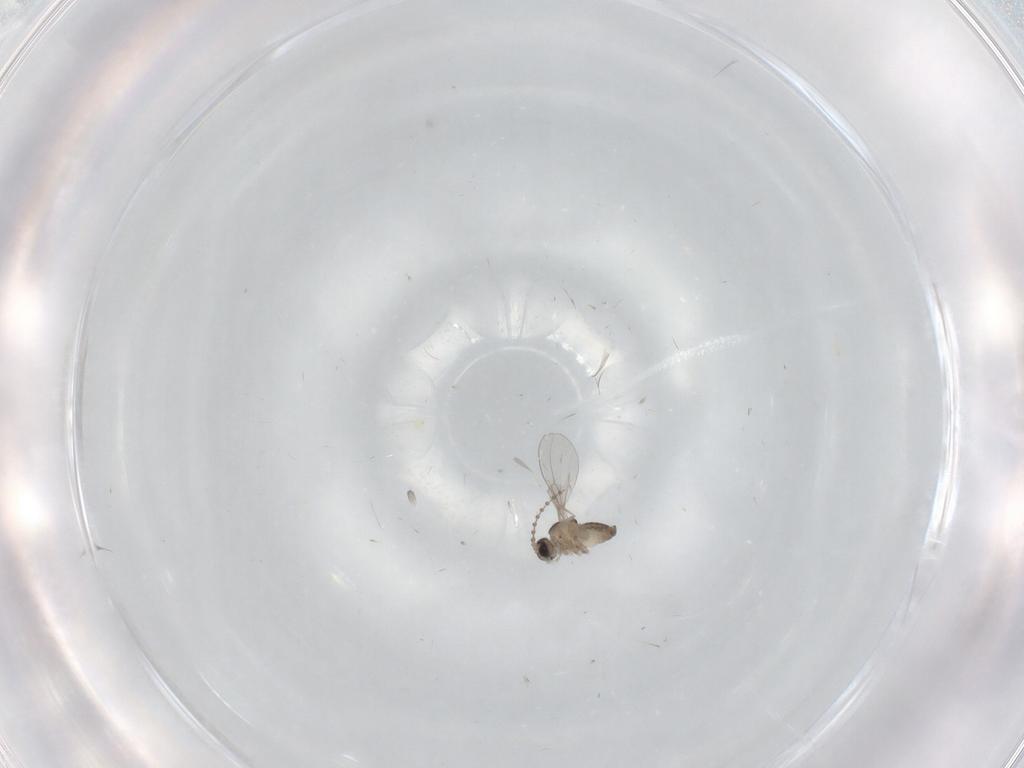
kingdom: Animalia
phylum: Arthropoda
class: Insecta
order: Diptera
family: Cecidomyiidae
